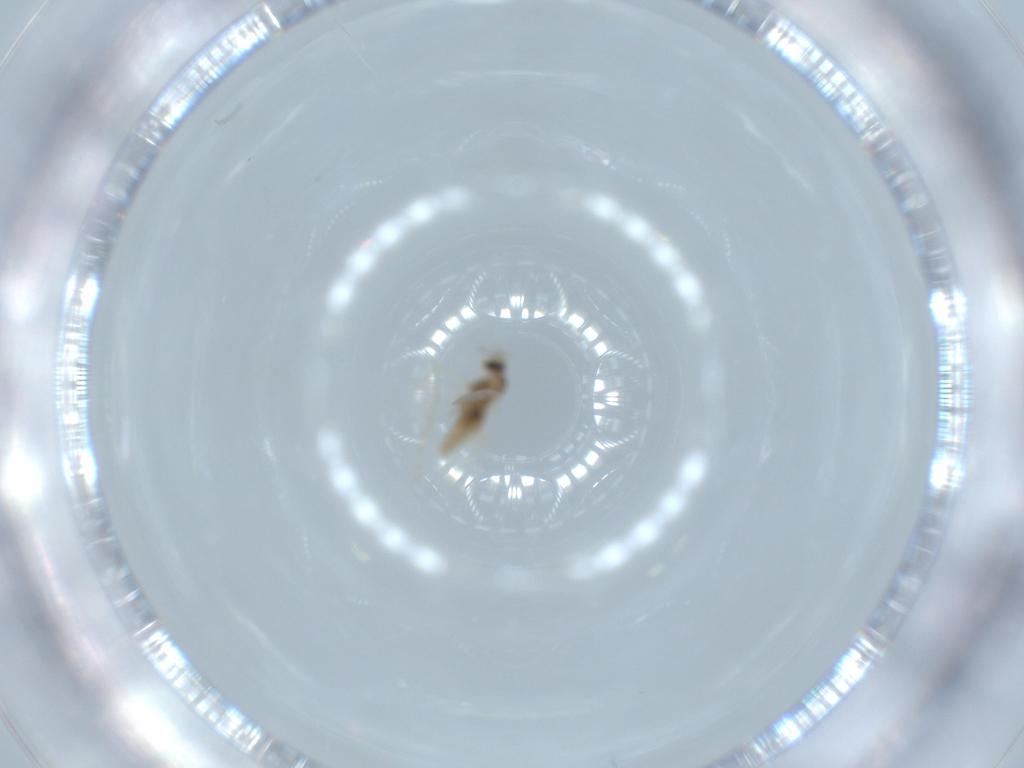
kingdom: Animalia
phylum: Arthropoda
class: Insecta
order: Diptera
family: Cecidomyiidae
